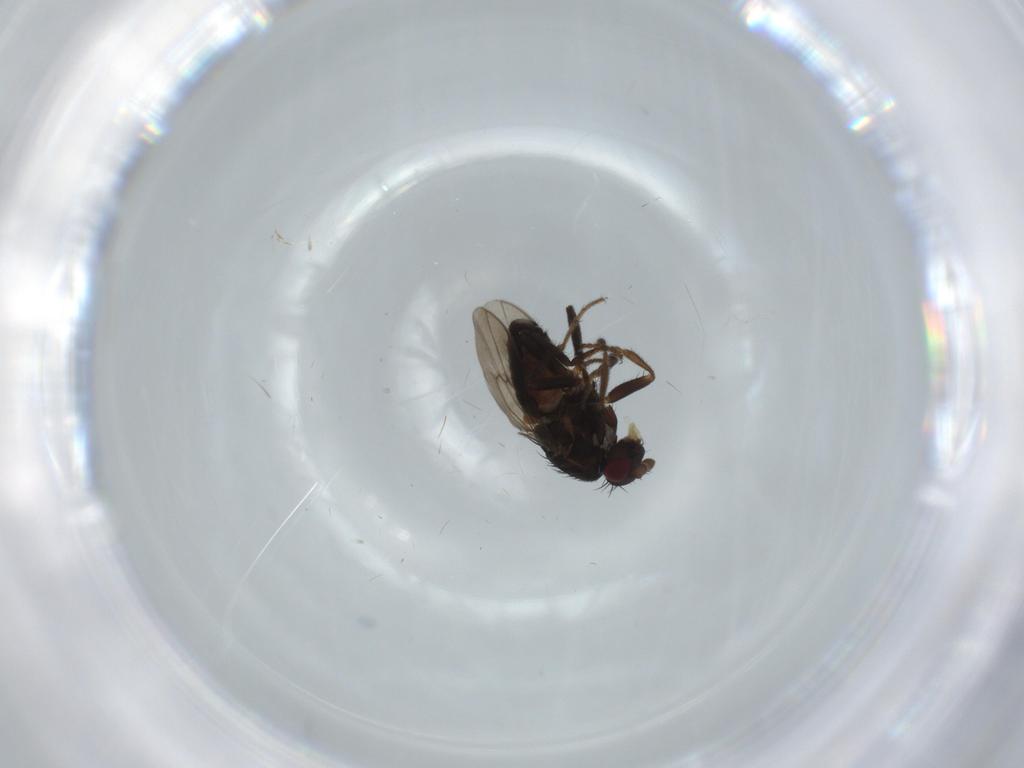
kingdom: Animalia
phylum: Arthropoda
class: Insecta
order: Diptera
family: Sphaeroceridae
